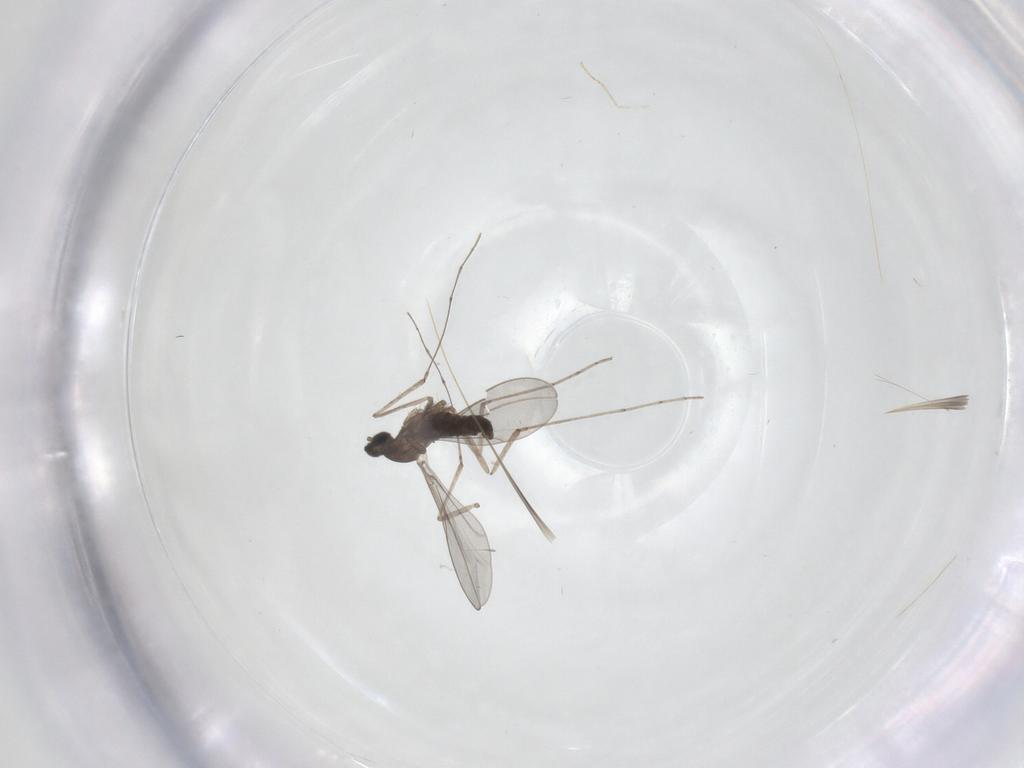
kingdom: Animalia
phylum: Arthropoda
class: Insecta
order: Diptera
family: Cecidomyiidae
